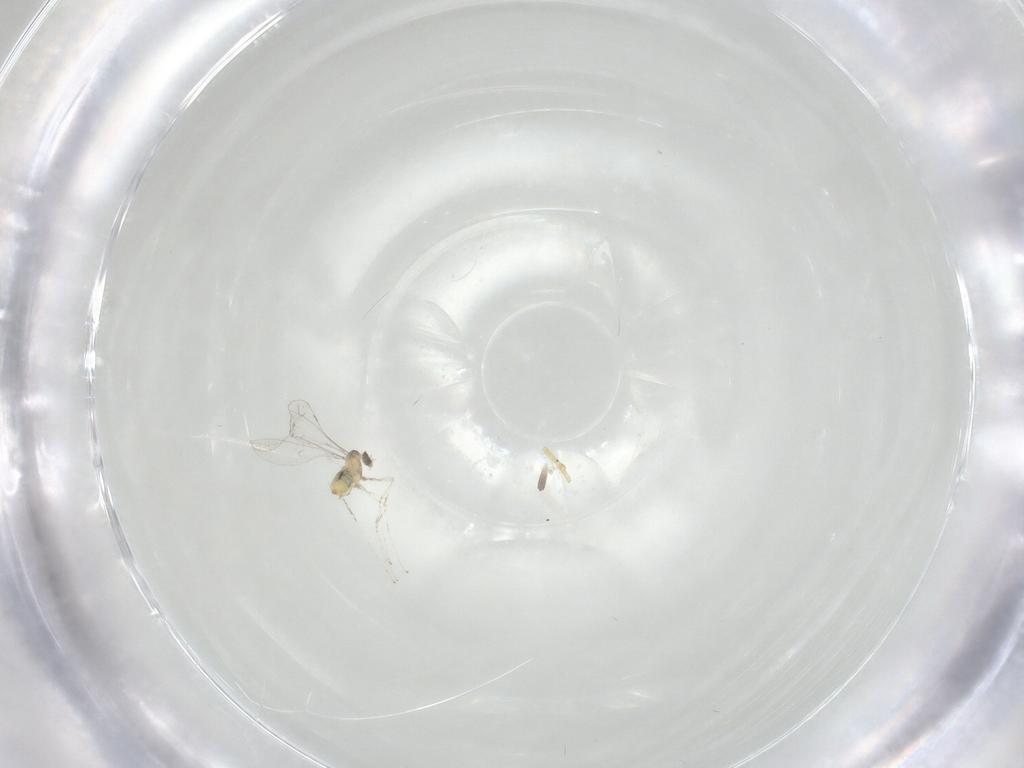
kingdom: Animalia
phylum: Arthropoda
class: Insecta
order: Diptera
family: Cecidomyiidae
